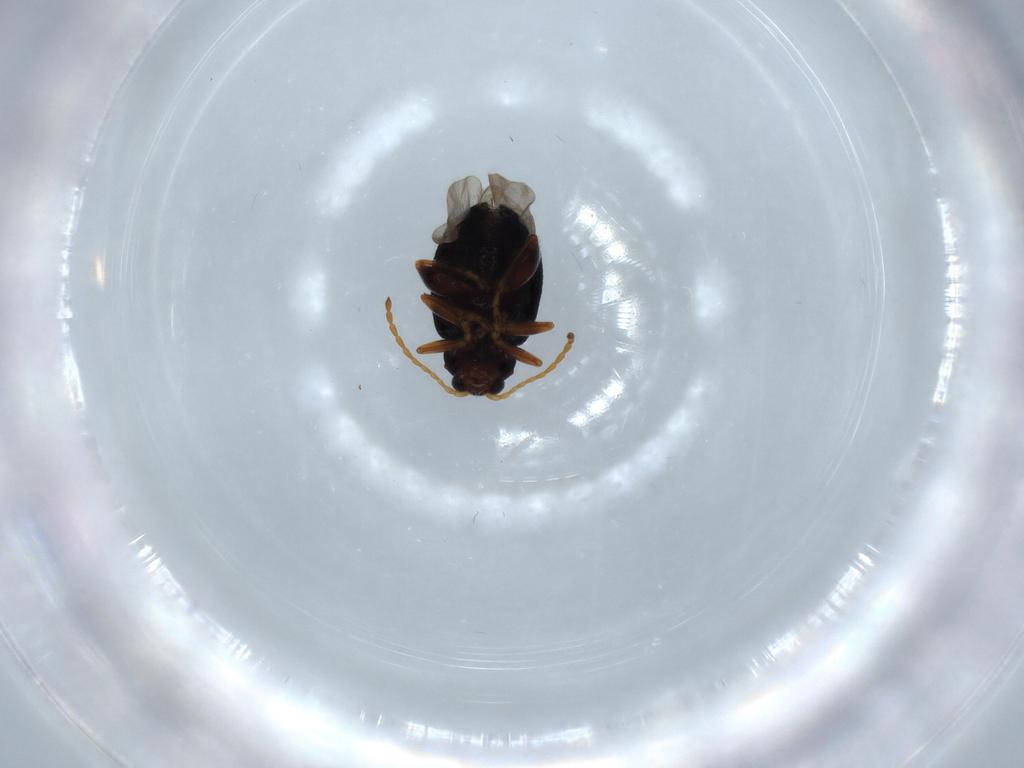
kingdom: Animalia
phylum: Arthropoda
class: Insecta
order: Coleoptera
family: Chrysomelidae
